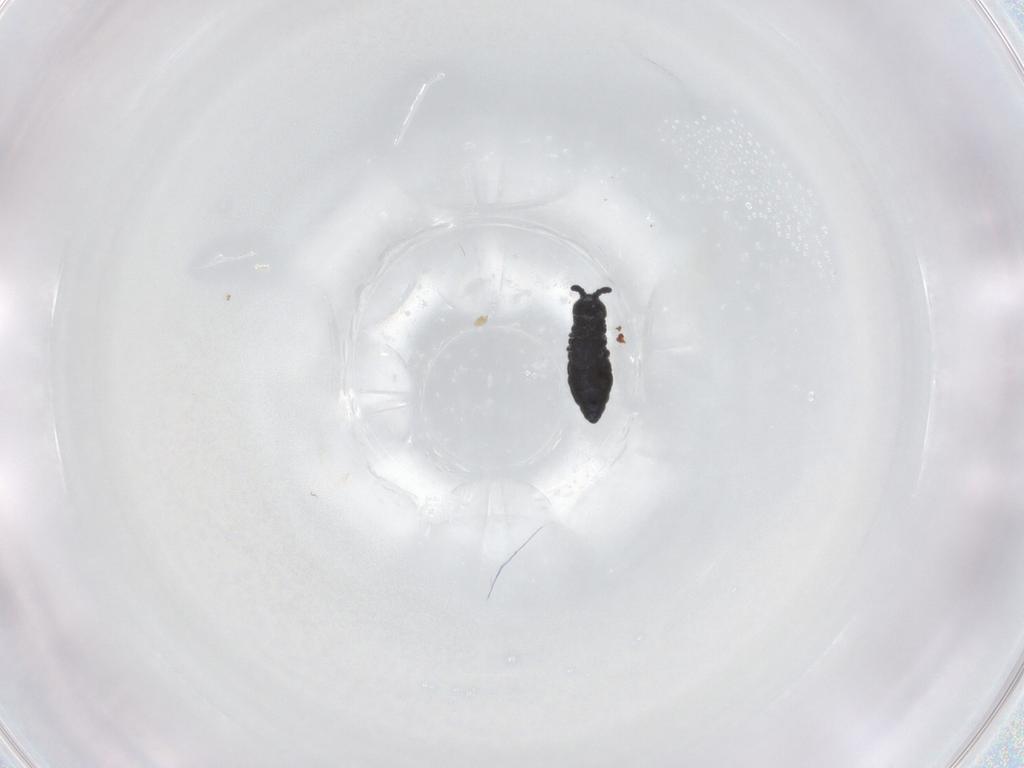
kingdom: Animalia
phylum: Arthropoda
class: Collembola
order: Poduromorpha
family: Hypogastruridae
